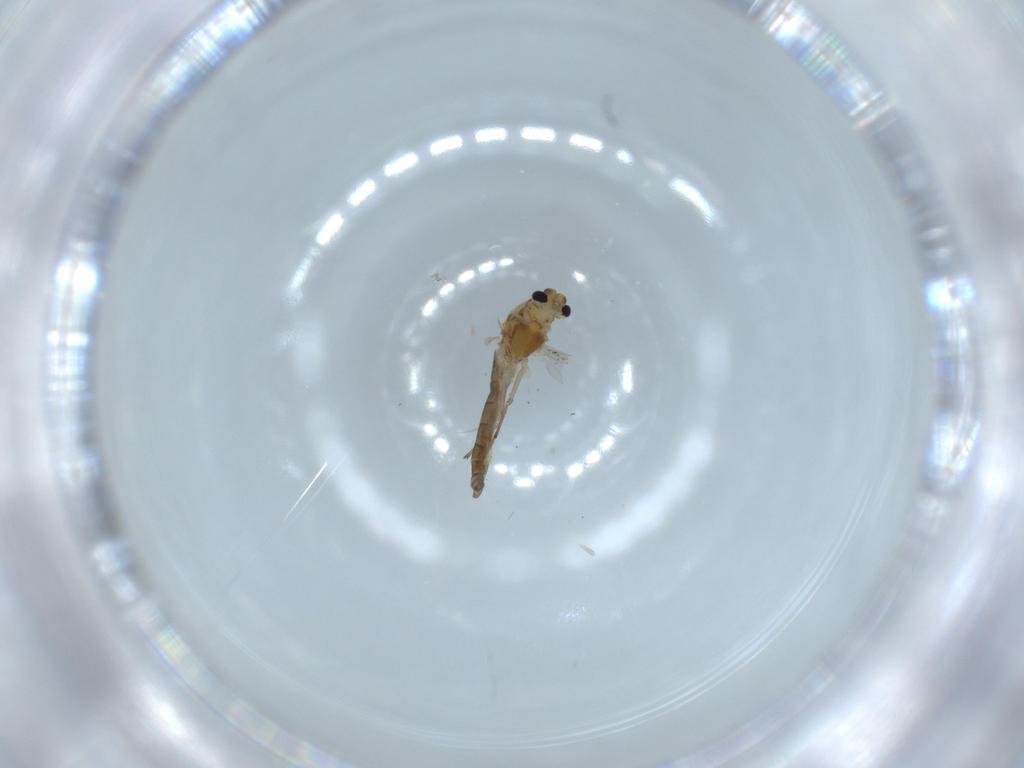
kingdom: Animalia
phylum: Arthropoda
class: Insecta
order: Diptera
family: Chironomidae
